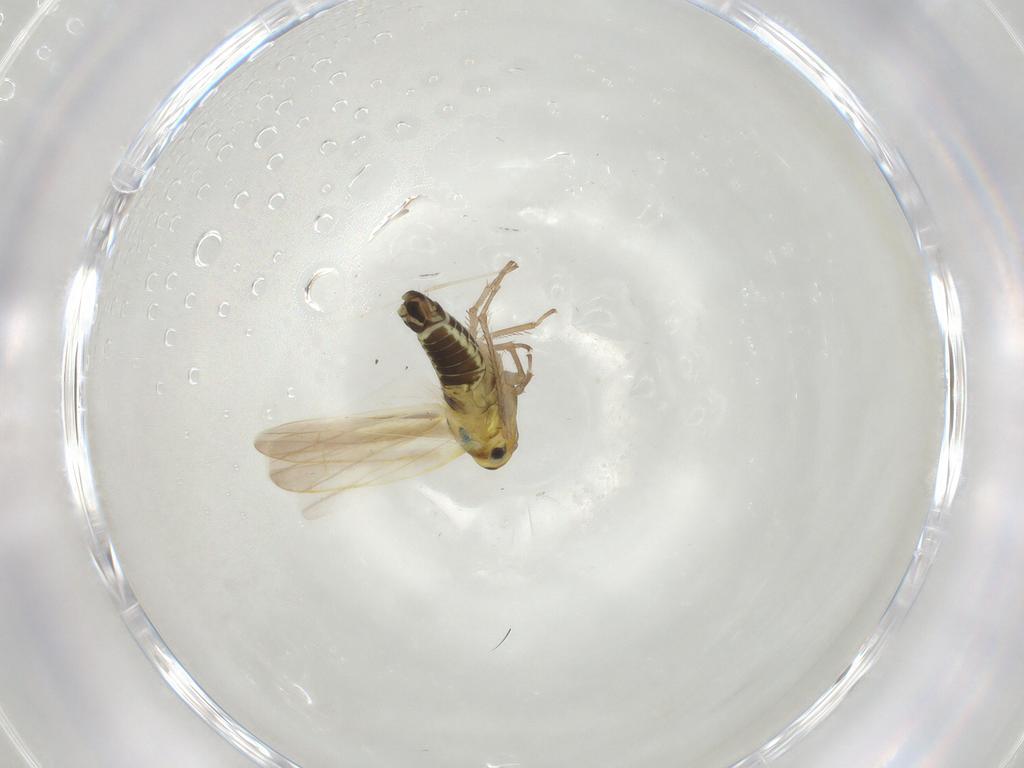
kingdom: Animalia
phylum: Arthropoda
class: Insecta
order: Hemiptera
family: Cicadellidae
